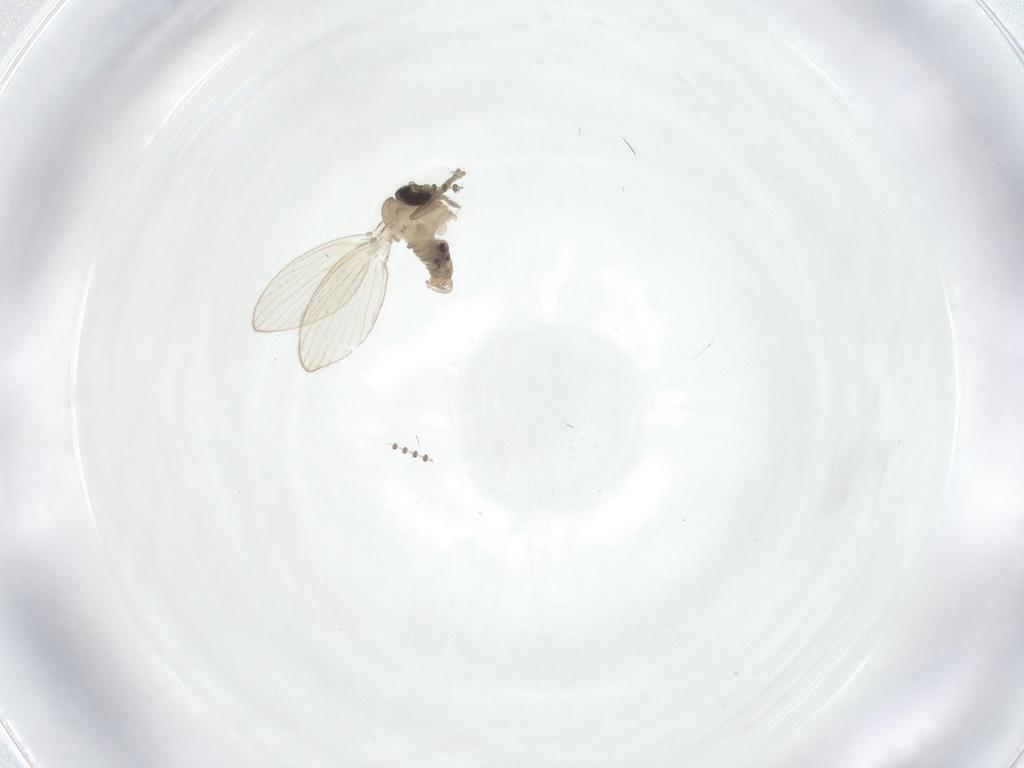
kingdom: Animalia
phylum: Arthropoda
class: Insecta
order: Diptera
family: Psychodidae
